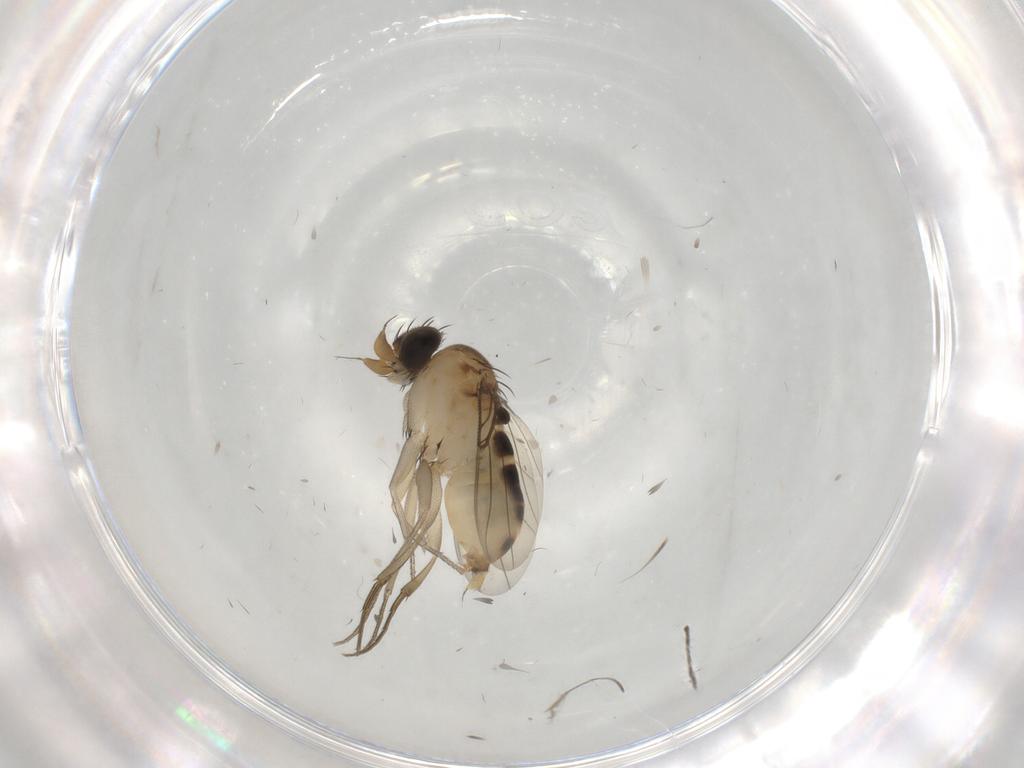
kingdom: Animalia
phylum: Arthropoda
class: Insecta
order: Diptera
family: Phoridae
